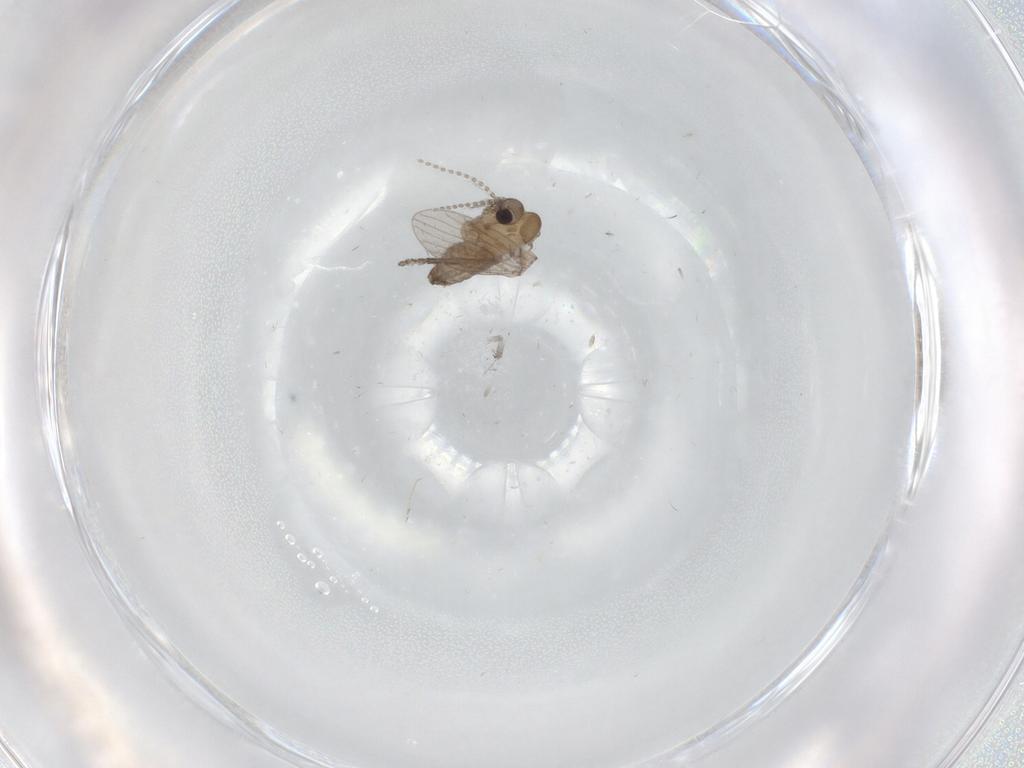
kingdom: Animalia
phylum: Arthropoda
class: Insecta
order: Diptera
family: Ceratopogonidae
